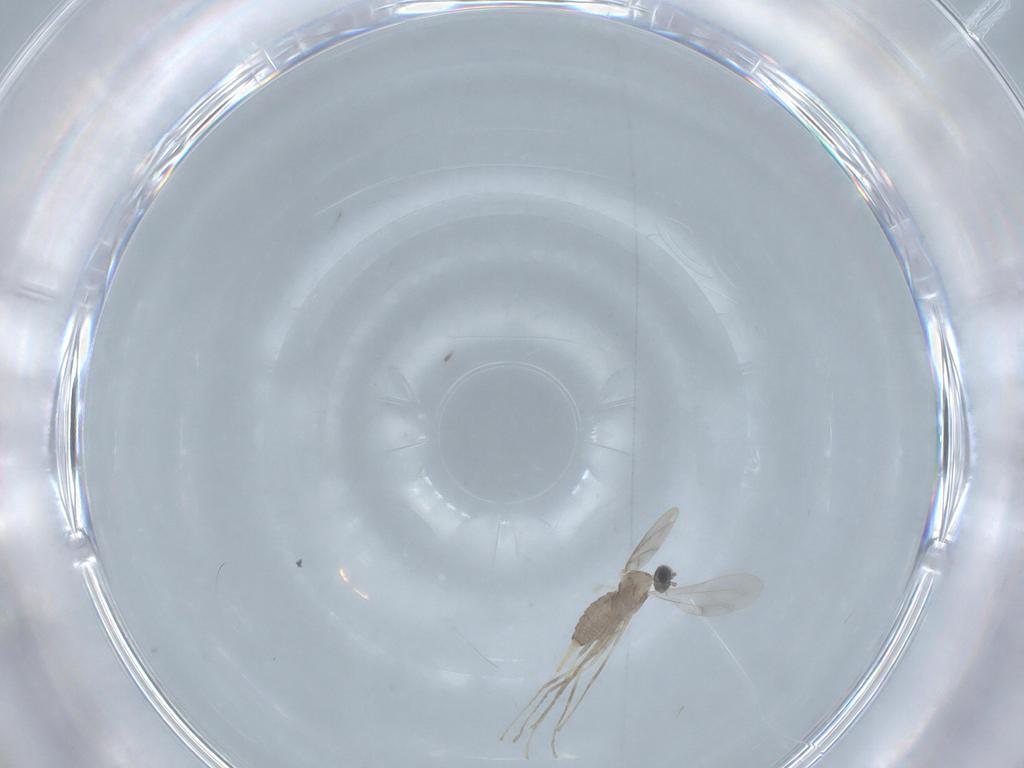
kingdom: Animalia
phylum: Arthropoda
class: Insecta
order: Diptera
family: Cecidomyiidae
